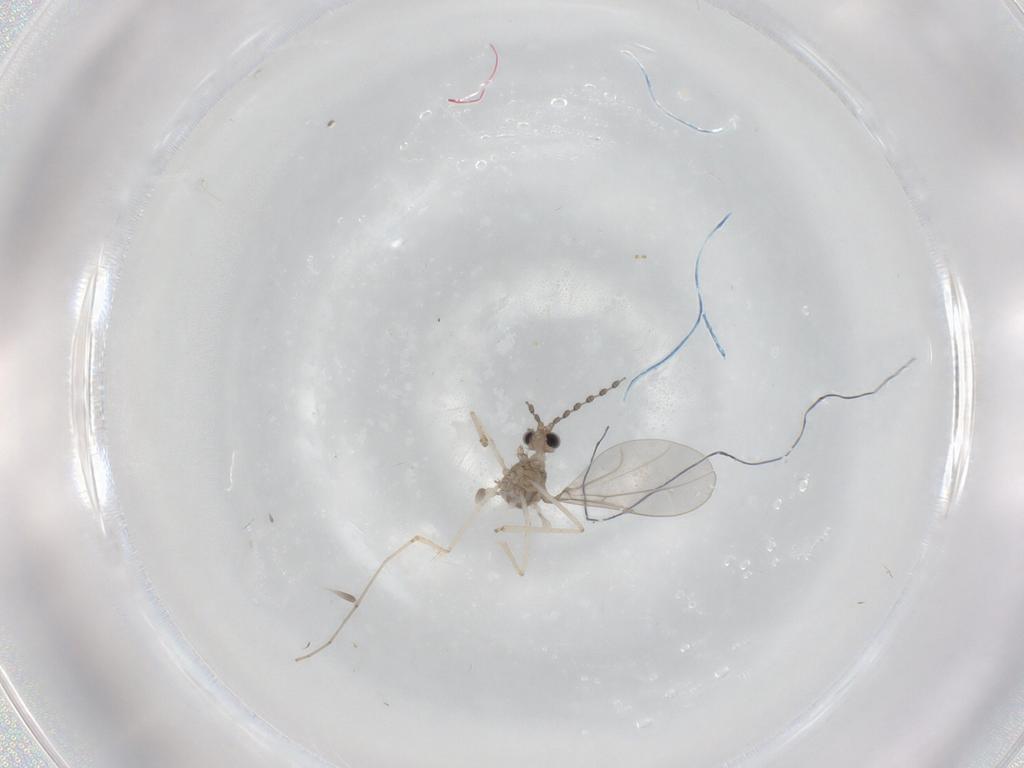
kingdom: Animalia
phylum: Arthropoda
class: Insecta
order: Diptera
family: Cecidomyiidae
